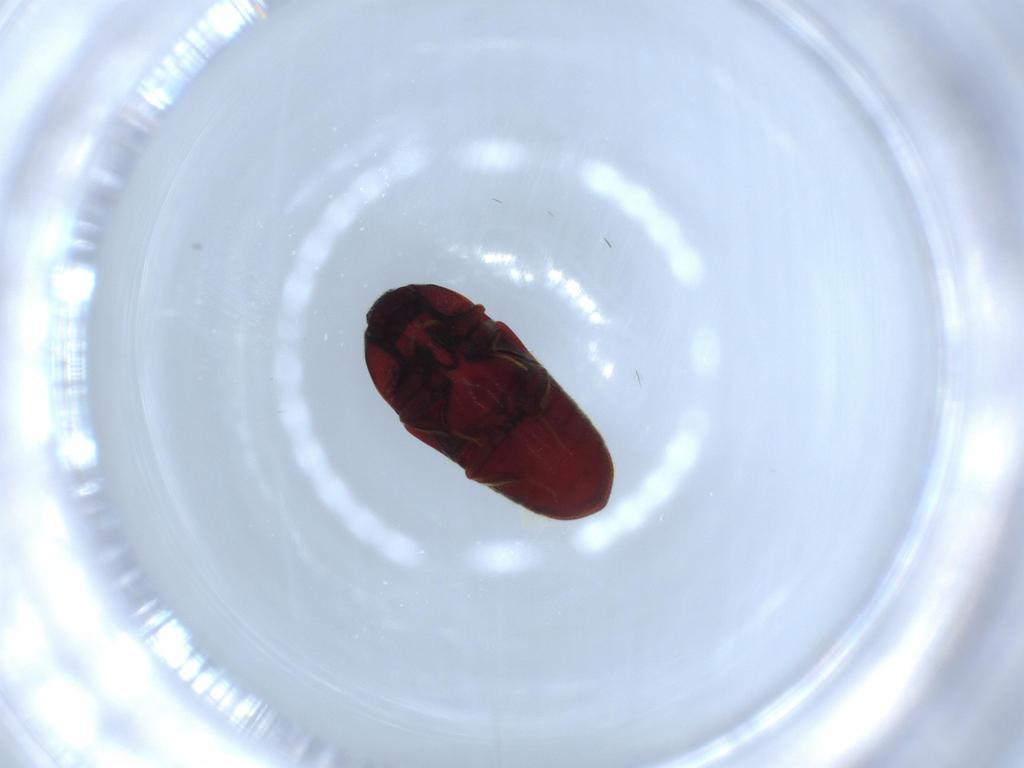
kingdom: Animalia
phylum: Arthropoda
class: Insecta
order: Coleoptera
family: Throscidae
